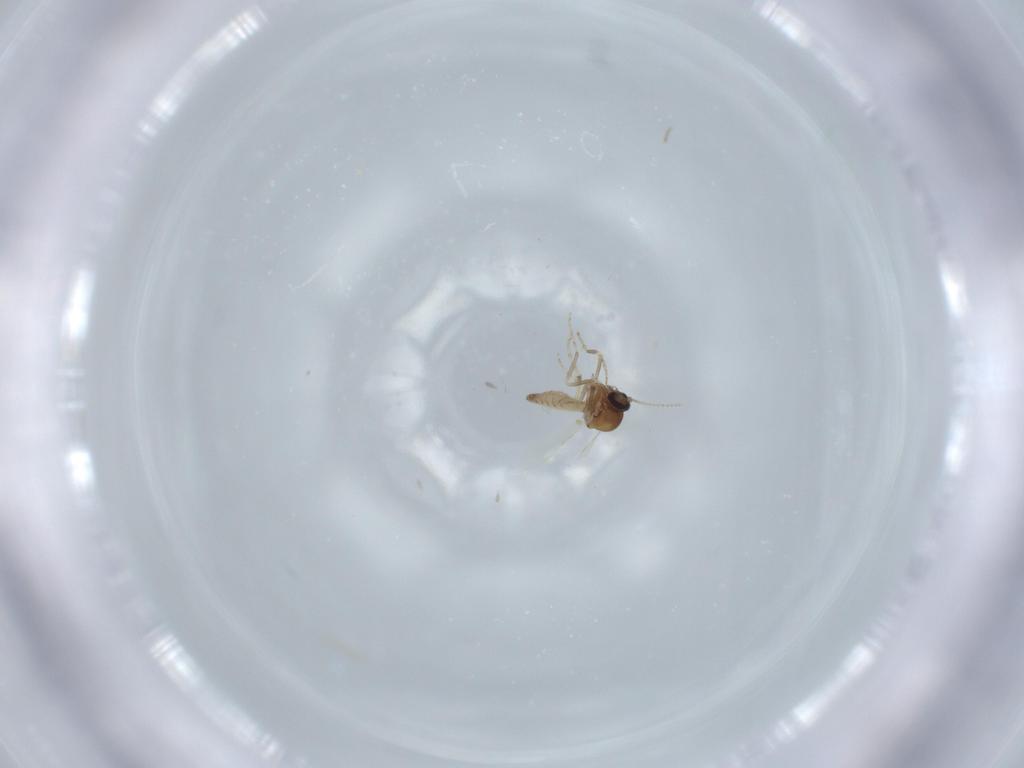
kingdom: Animalia
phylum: Arthropoda
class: Insecta
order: Diptera
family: Ceratopogonidae
